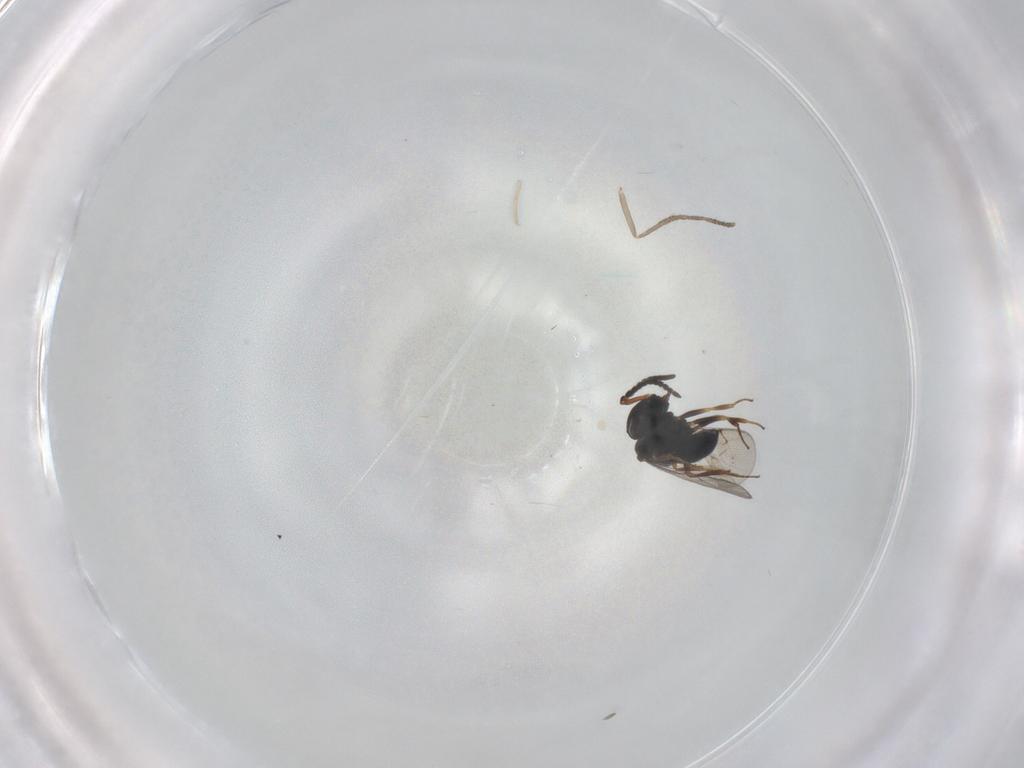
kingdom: Animalia
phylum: Arthropoda
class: Insecta
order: Hymenoptera
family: Scelionidae
